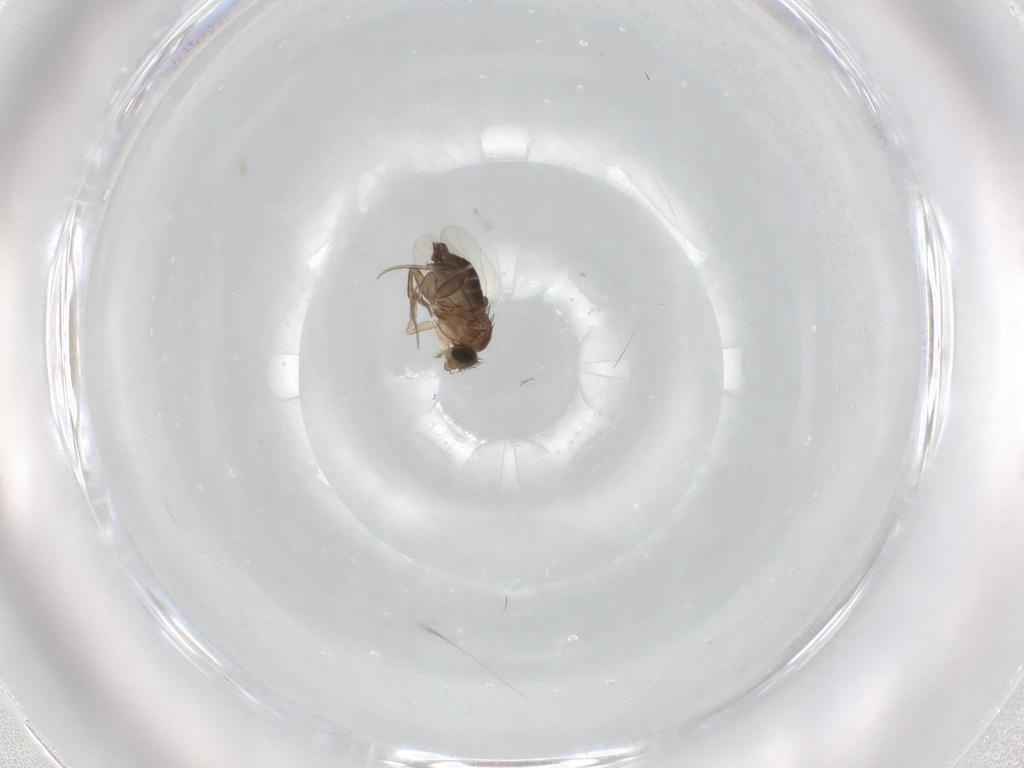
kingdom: Animalia
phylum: Arthropoda
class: Insecta
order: Diptera
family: Phoridae
